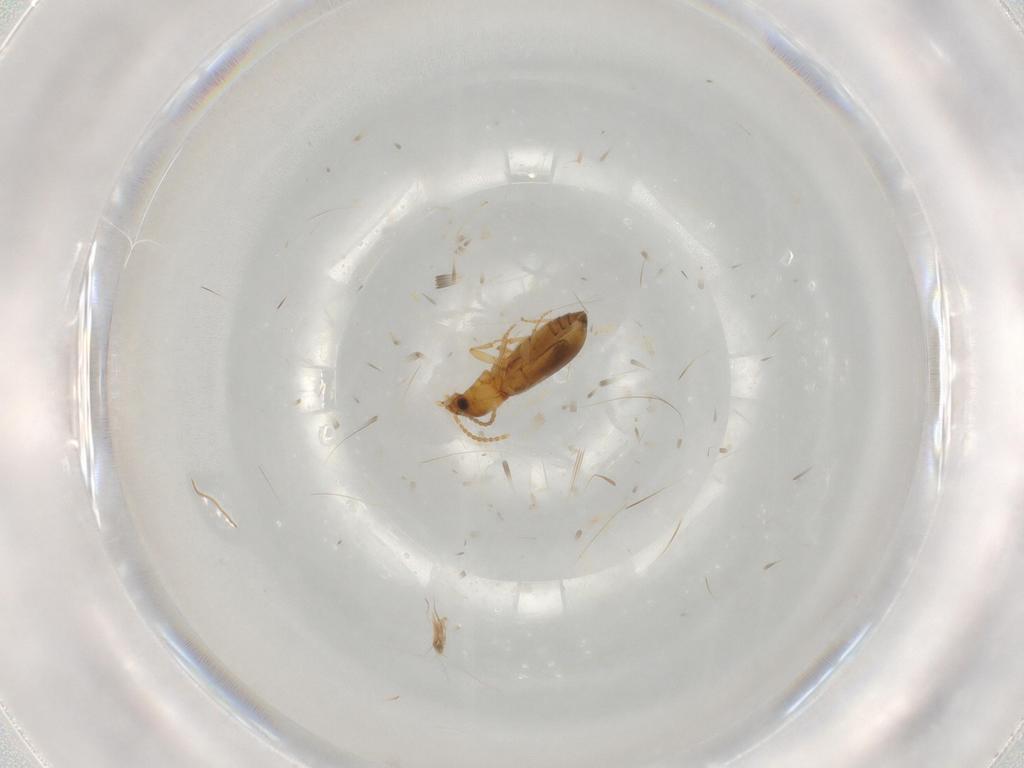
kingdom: Animalia
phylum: Arthropoda
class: Insecta
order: Coleoptera
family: Carabidae
